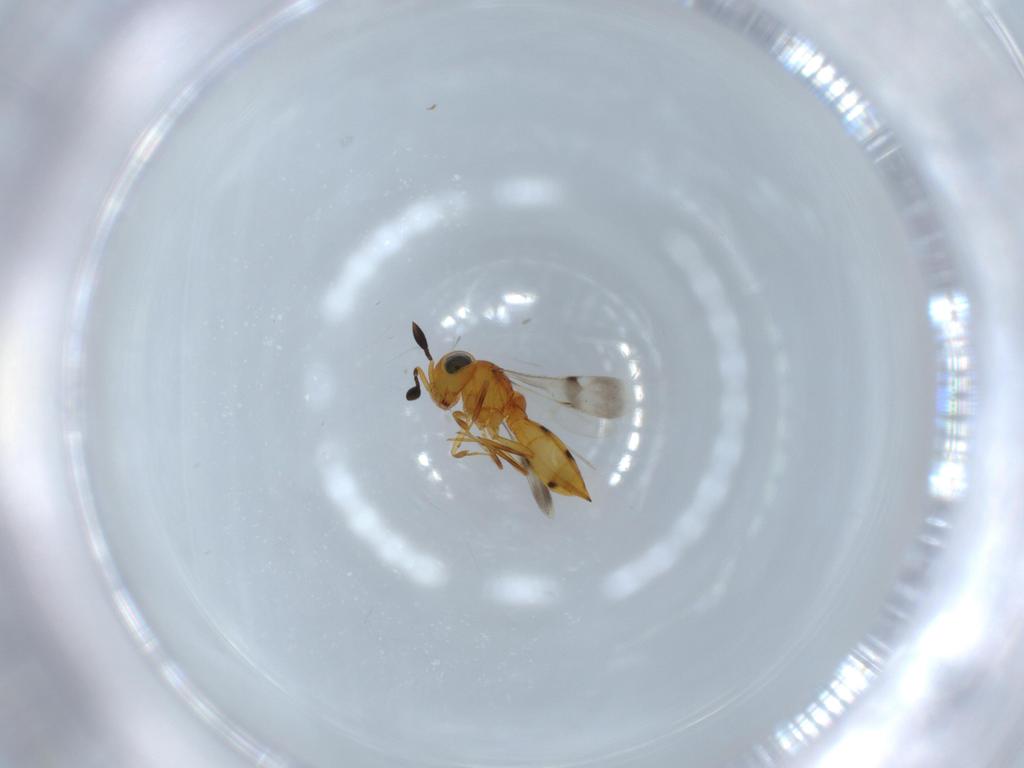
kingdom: Animalia
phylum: Arthropoda
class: Insecta
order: Hymenoptera
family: Scelionidae
